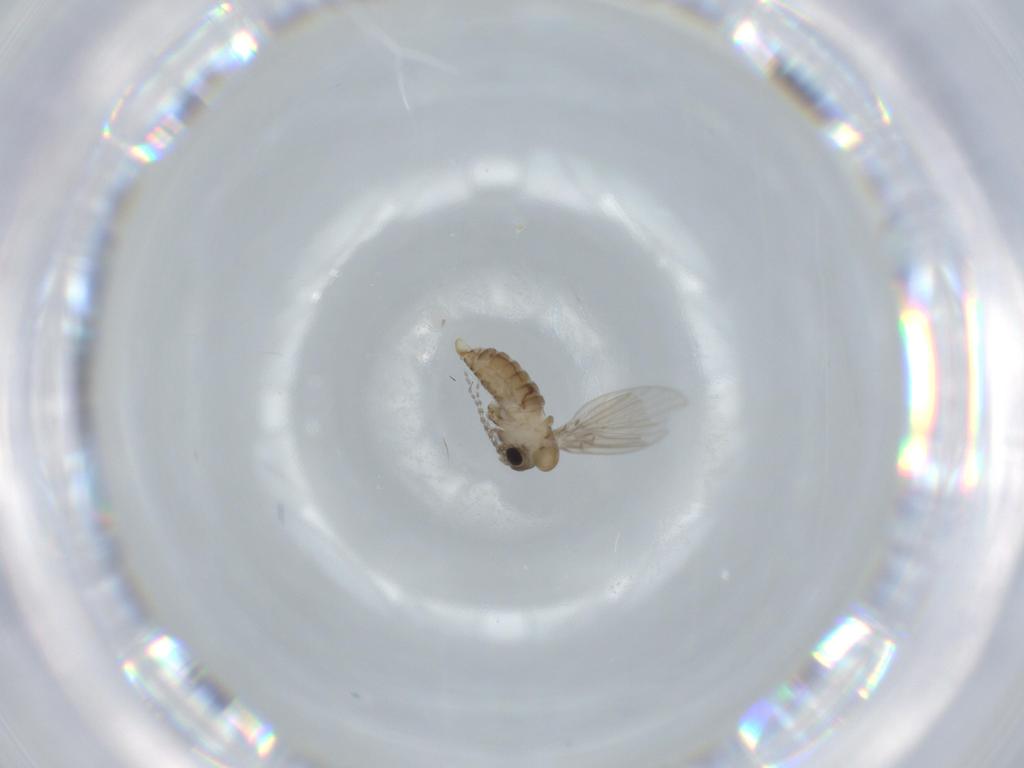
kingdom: Animalia
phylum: Arthropoda
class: Insecta
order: Diptera
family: Psychodidae
